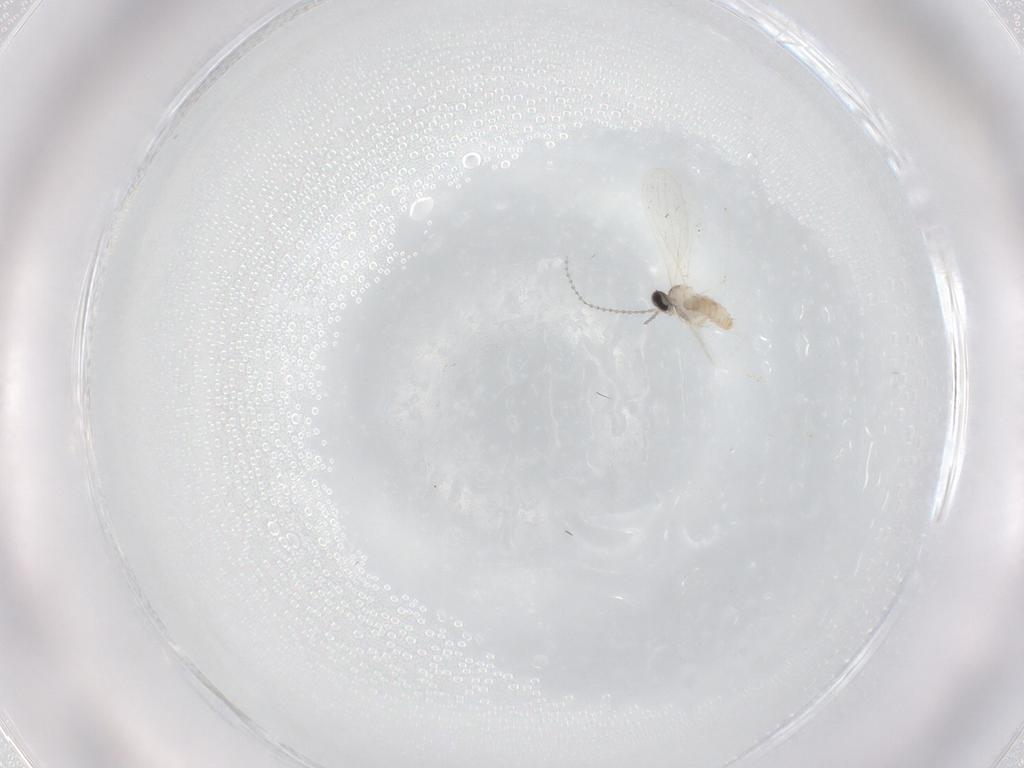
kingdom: Animalia
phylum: Arthropoda
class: Insecta
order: Diptera
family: Cecidomyiidae
